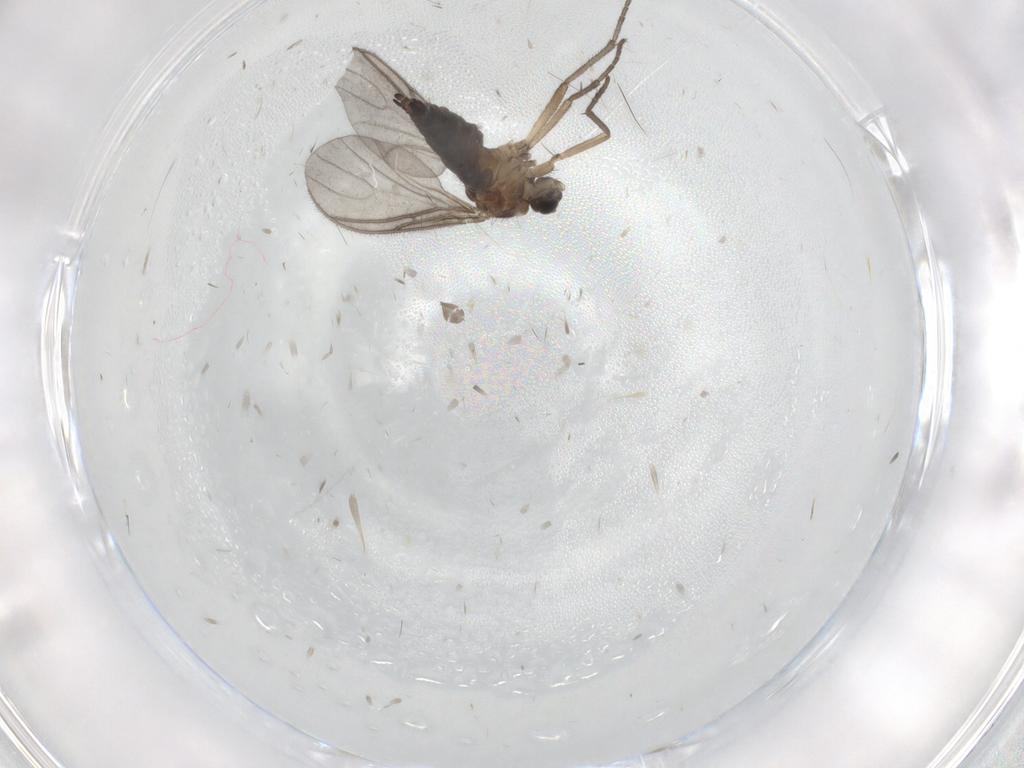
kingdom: Animalia
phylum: Arthropoda
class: Insecta
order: Diptera
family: Sciaridae
